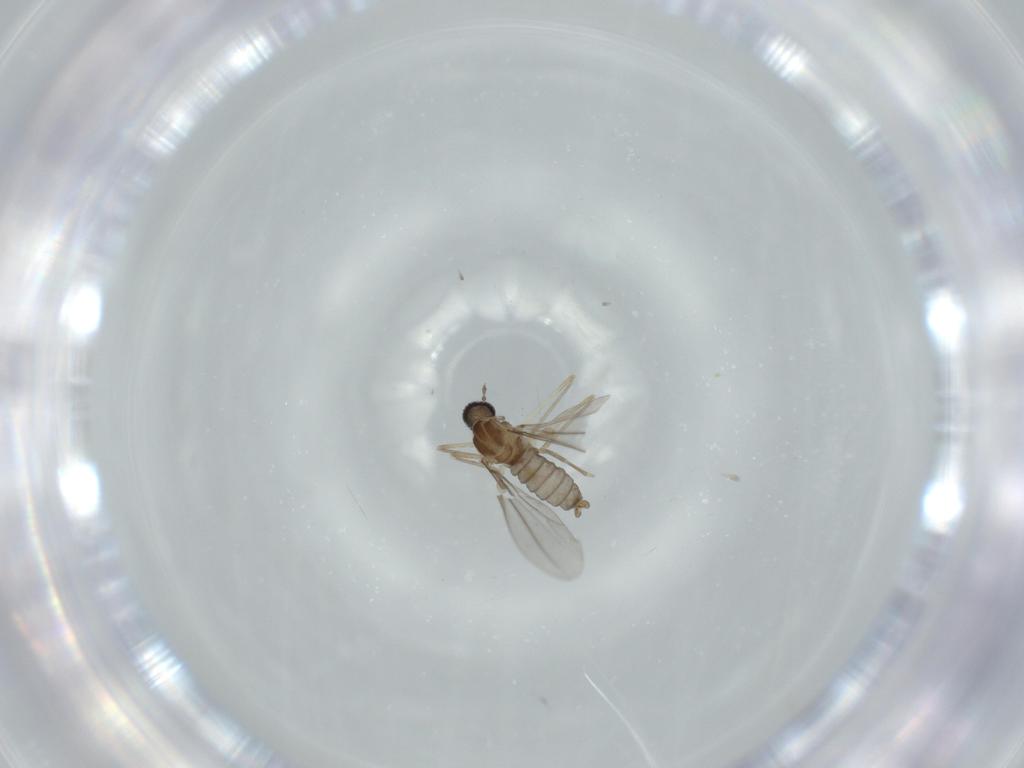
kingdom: Animalia
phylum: Arthropoda
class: Insecta
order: Diptera
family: Cecidomyiidae
